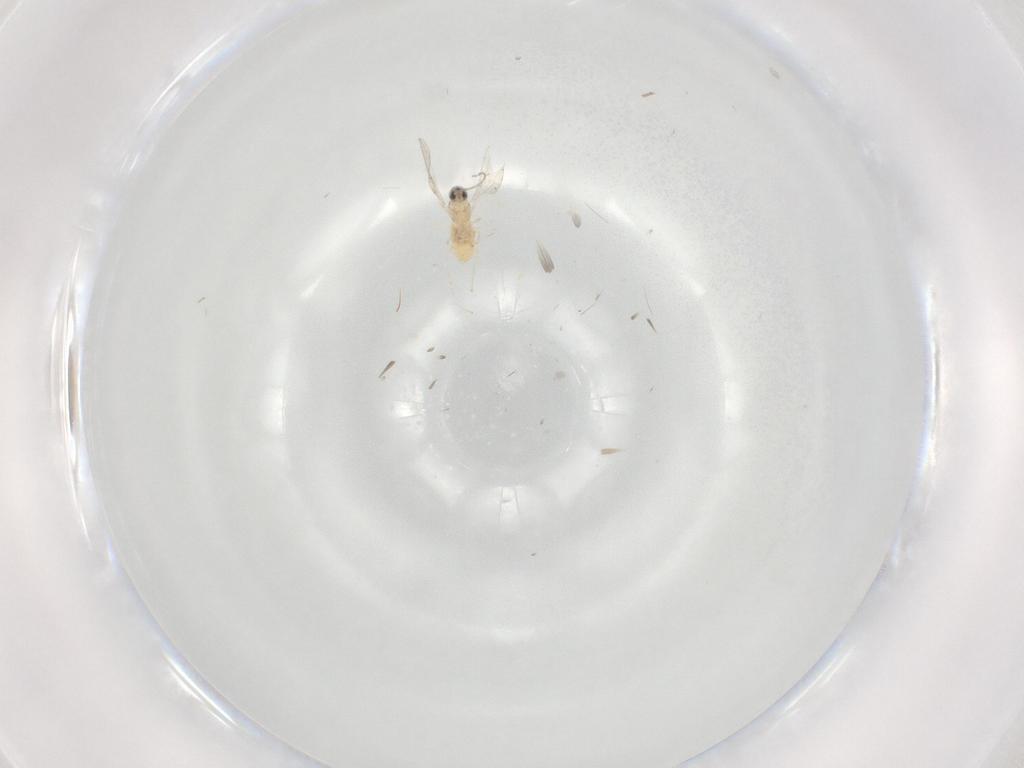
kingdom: Animalia
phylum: Arthropoda
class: Insecta
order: Diptera
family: Cecidomyiidae
